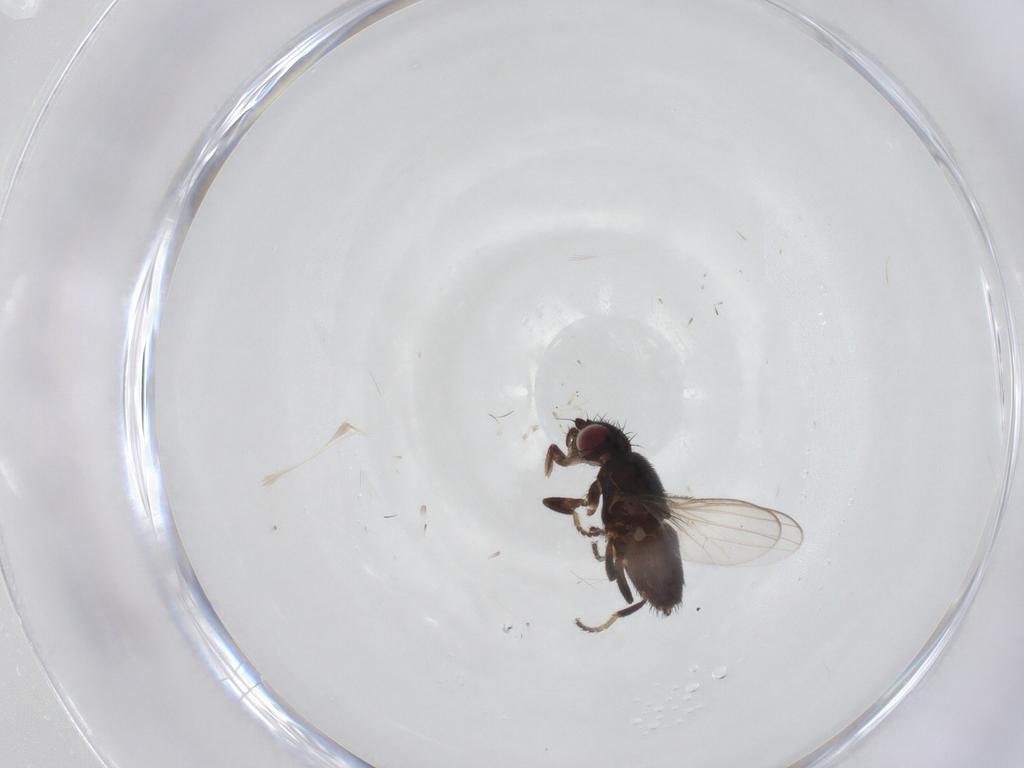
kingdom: Animalia
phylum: Arthropoda
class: Insecta
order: Diptera
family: Milichiidae
